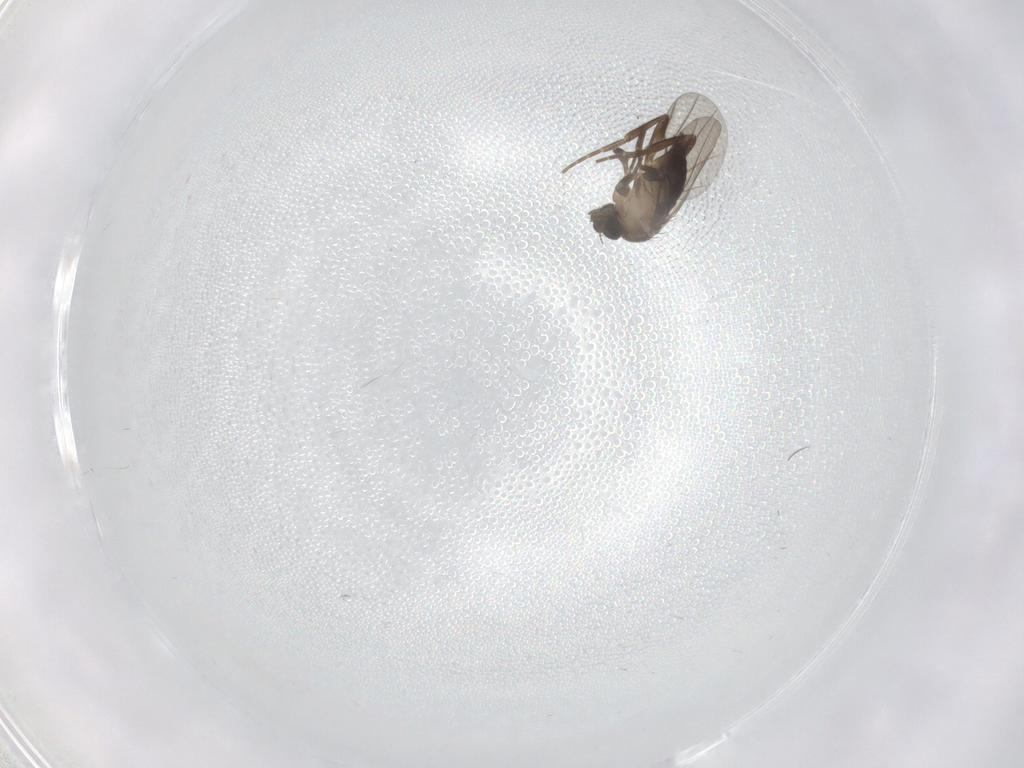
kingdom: Animalia
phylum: Arthropoda
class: Insecta
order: Diptera
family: Cecidomyiidae
